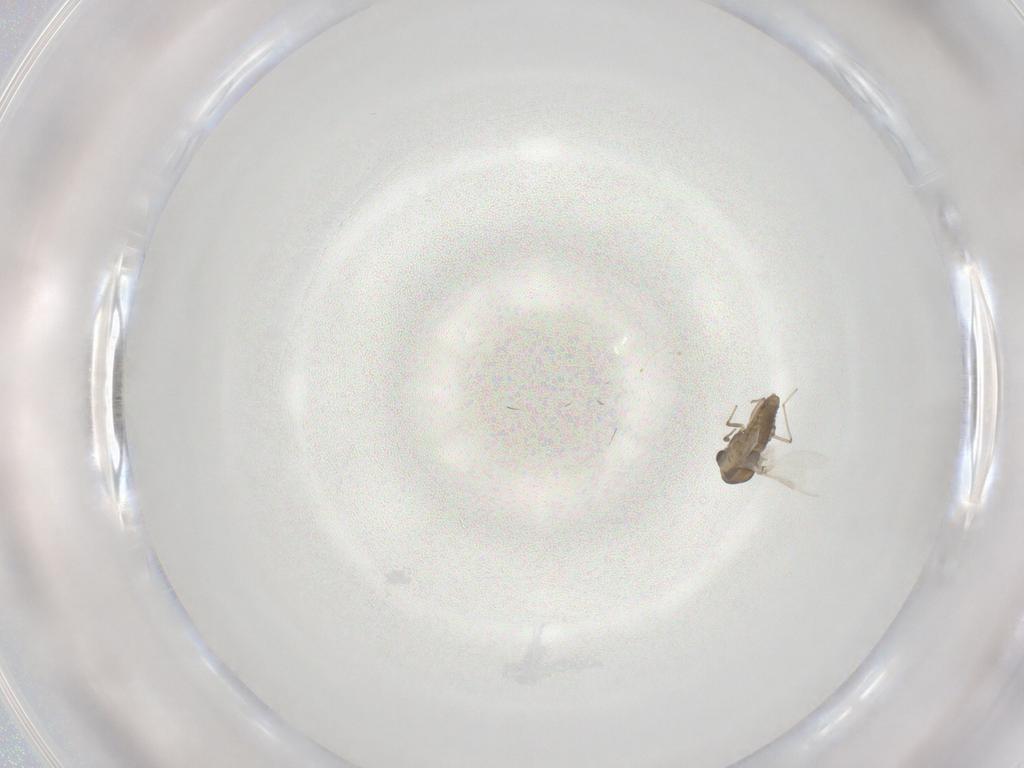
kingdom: Animalia
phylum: Arthropoda
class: Insecta
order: Diptera
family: Chironomidae
